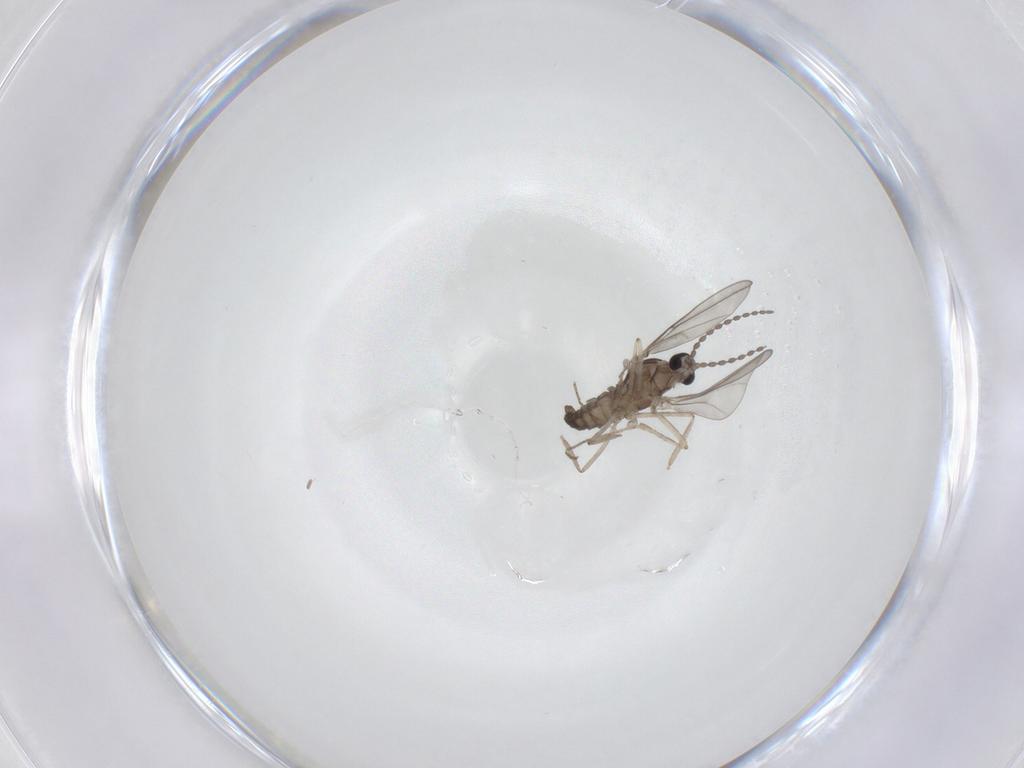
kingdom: Animalia
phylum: Arthropoda
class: Insecta
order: Diptera
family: Cecidomyiidae
